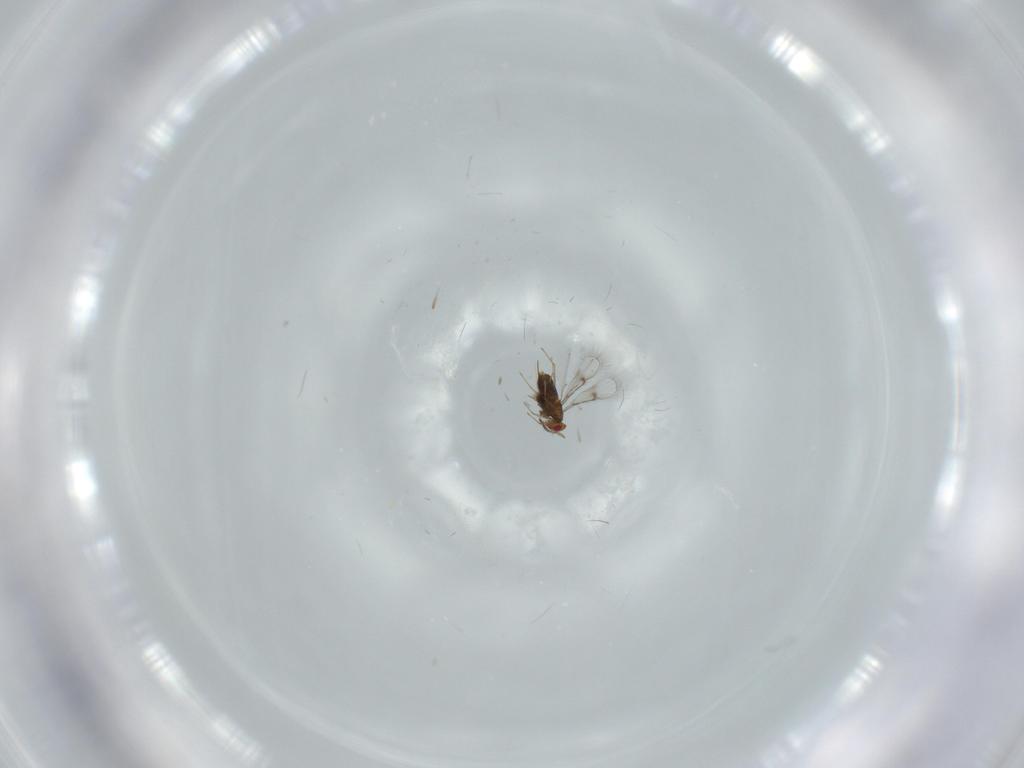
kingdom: Animalia
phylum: Arthropoda
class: Insecta
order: Hymenoptera
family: Trichogrammatidae
